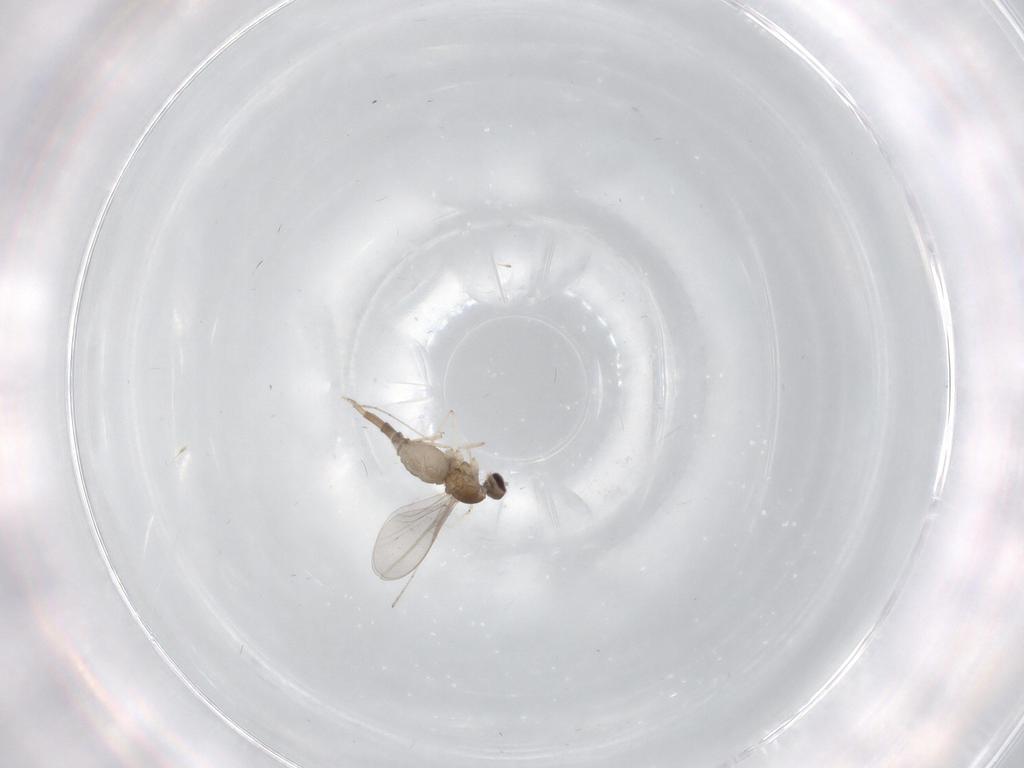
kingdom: Animalia
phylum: Arthropoda
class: Insecta
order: Diptera
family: Cecidomyiidae
